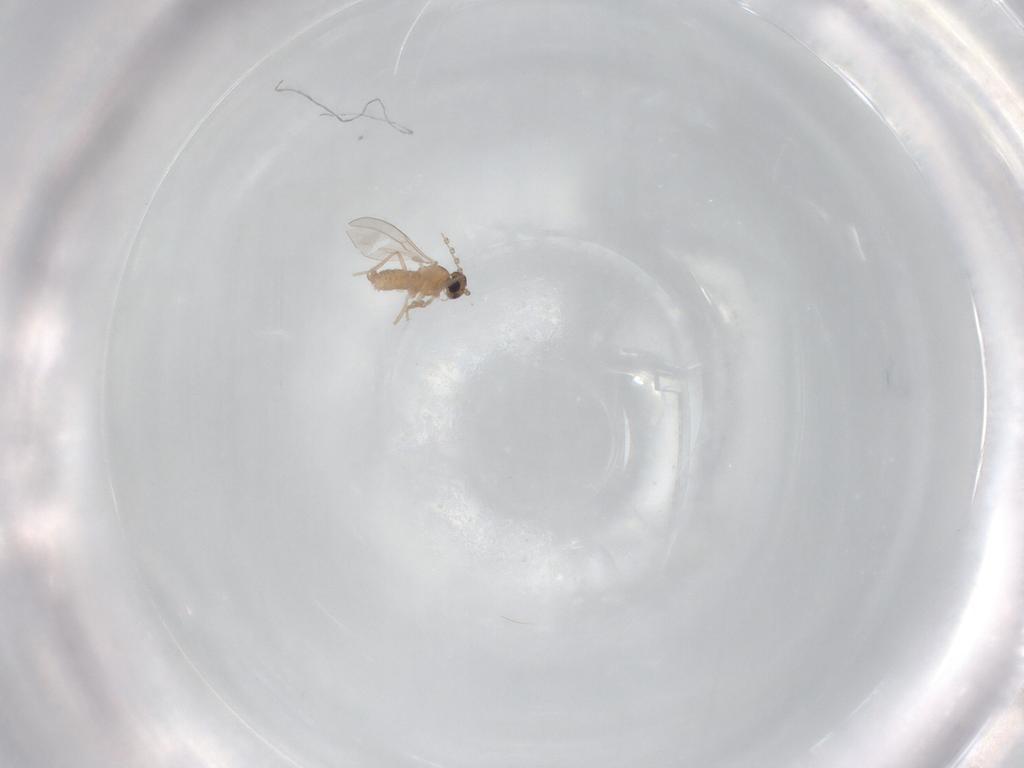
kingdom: Animalia
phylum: Arthropoda
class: Insecta
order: Diptera
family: Cecidomyiidae
